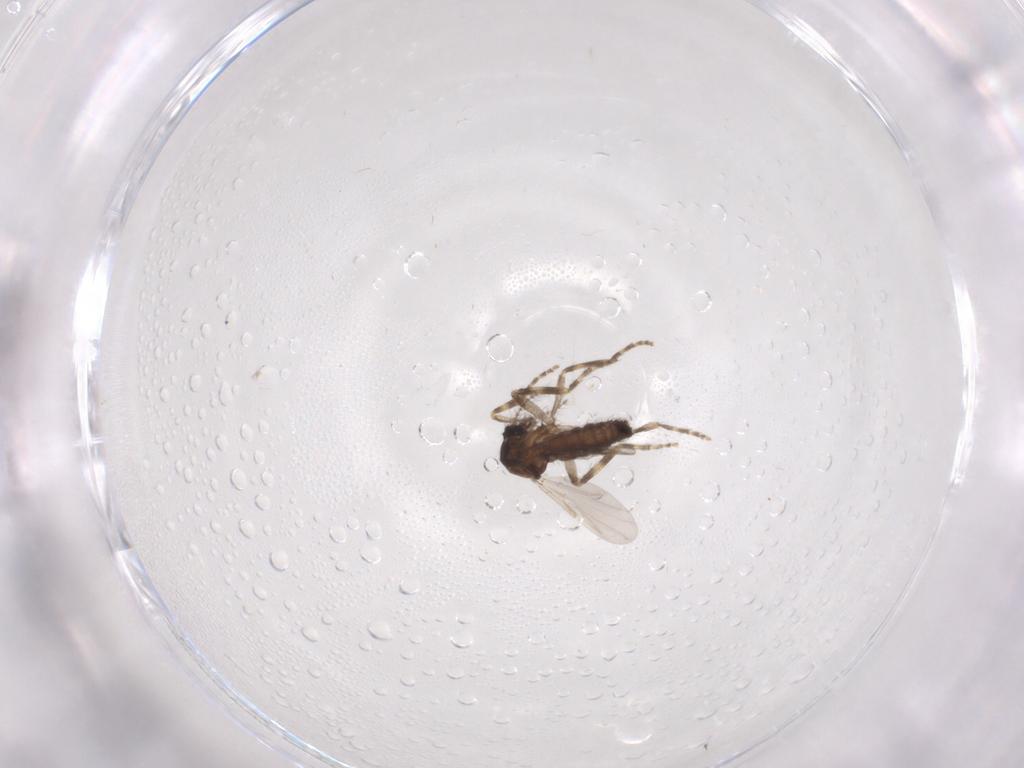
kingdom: Animalia
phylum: Arthropoda
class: Insecta
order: Diptera
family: Ceratopogonidae
